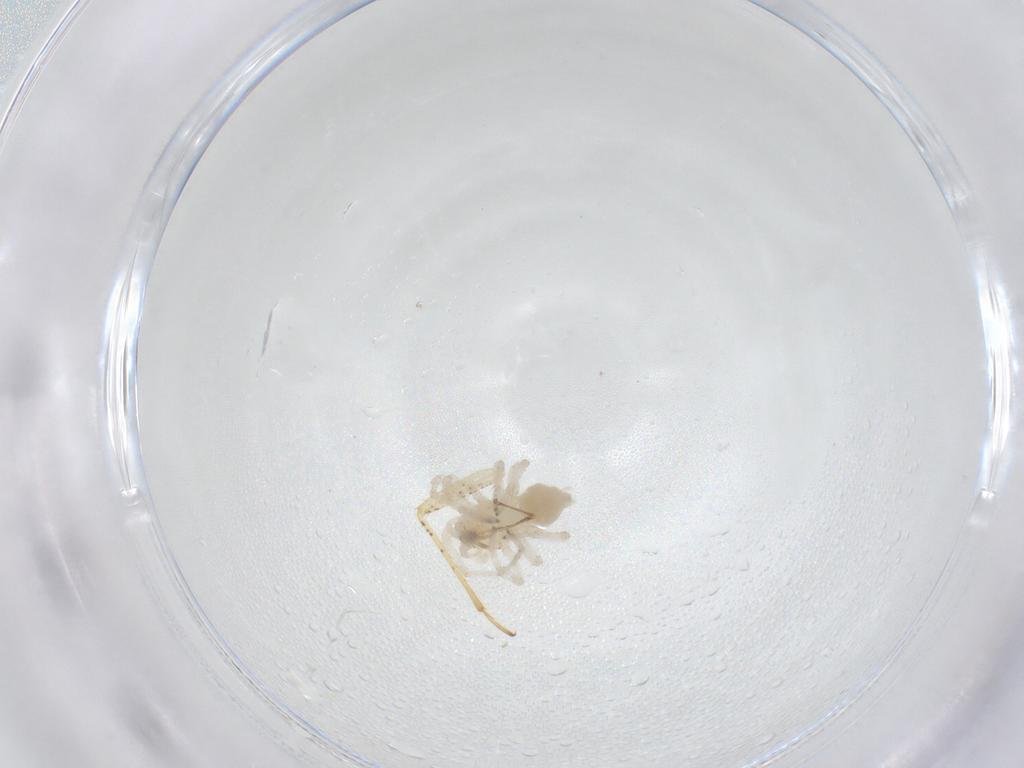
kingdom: Animalia
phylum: Arthropoda
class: Arachnida
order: Araneae
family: Anyphaenidae
